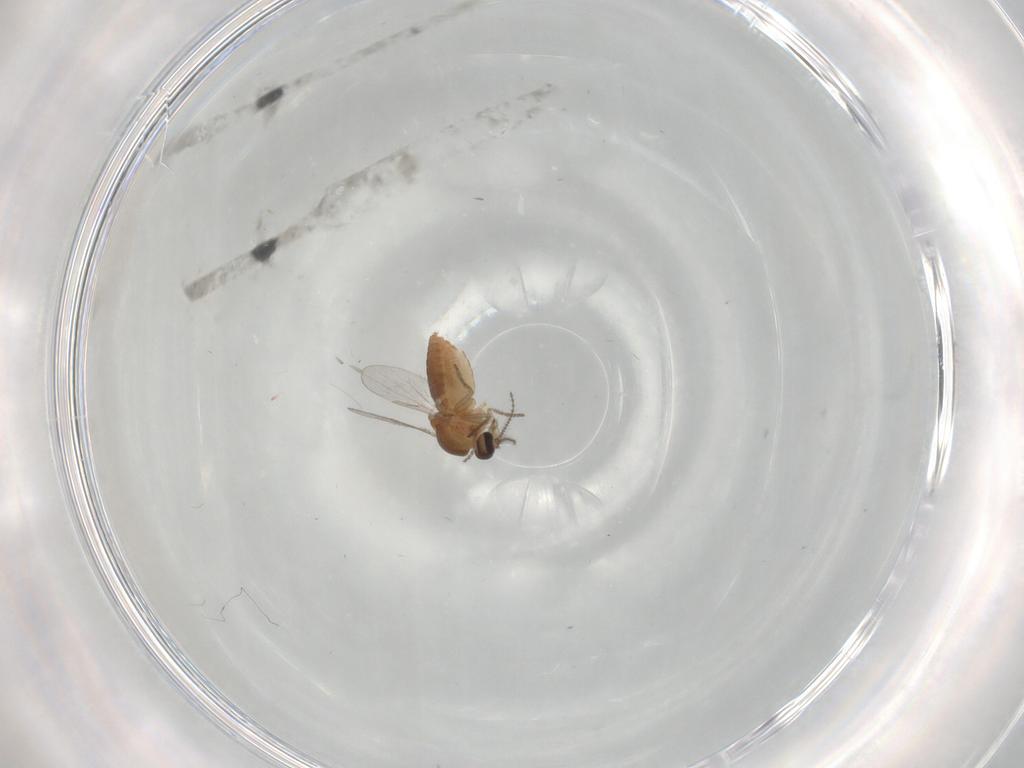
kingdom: Animalia
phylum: Arthropoda
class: Insecta
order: Diptera
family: Chironomidae
